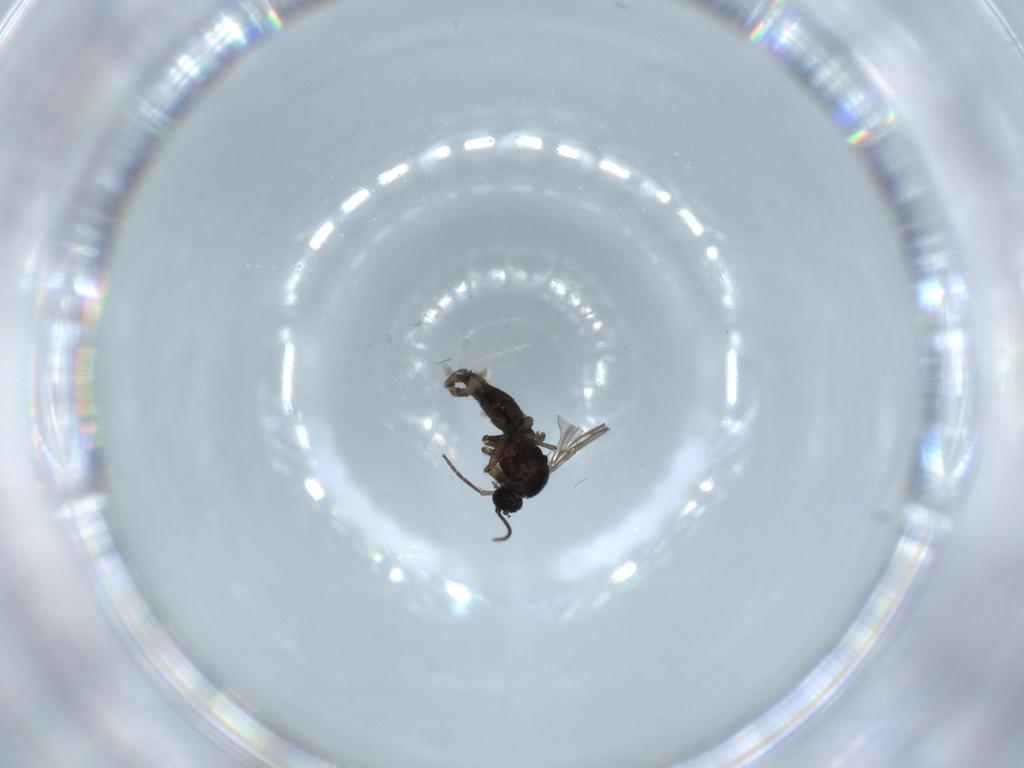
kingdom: Animalia
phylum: Arthropoda
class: Insecta
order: Diptera
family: Sciaridae
